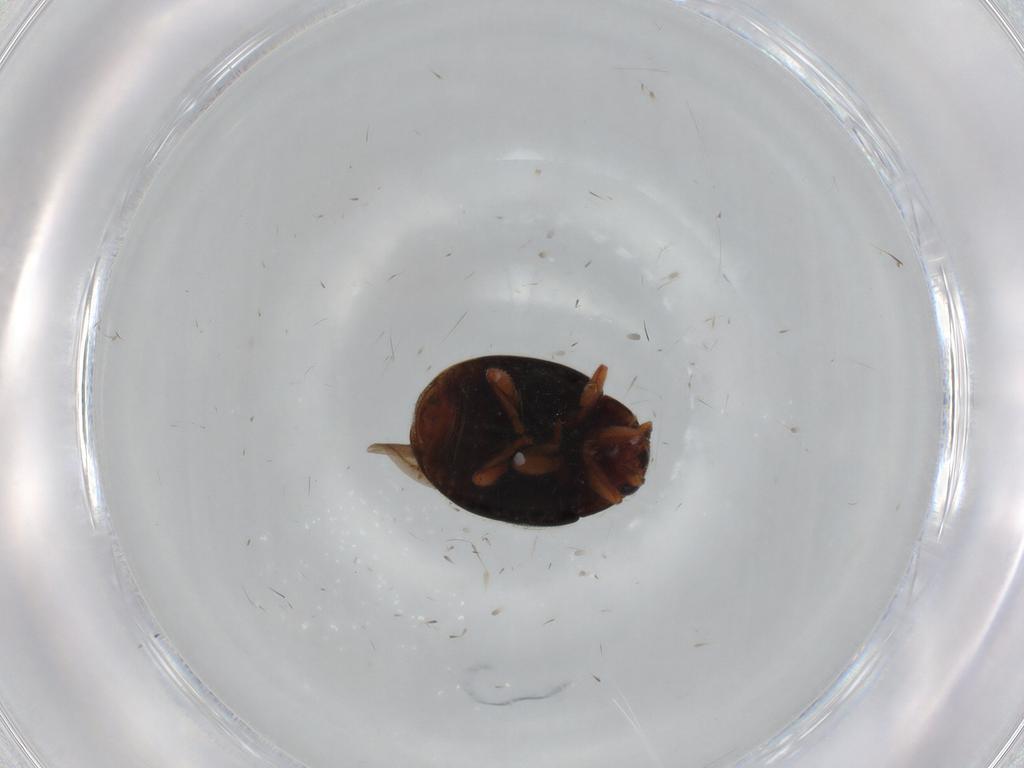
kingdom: Animalia
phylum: Arthropoda
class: Insecta
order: Coleoptera
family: Coccinellidae
